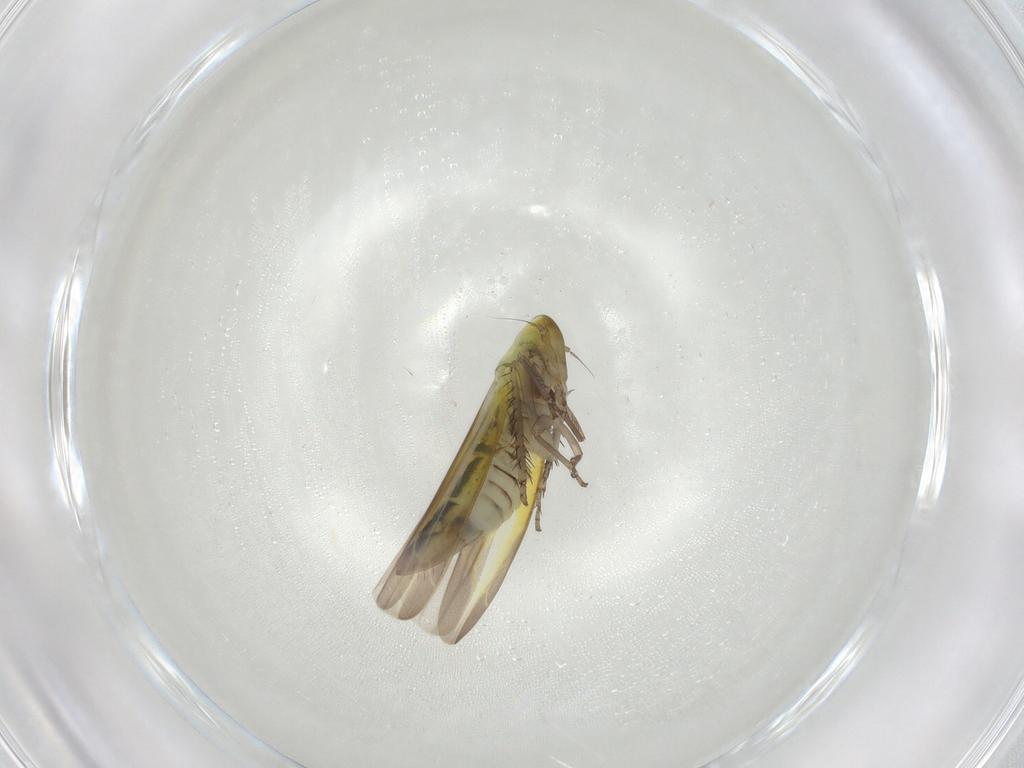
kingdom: Animalia
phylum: Arthropoda
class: Insecta
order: Hemiptera
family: Cicadellidae
